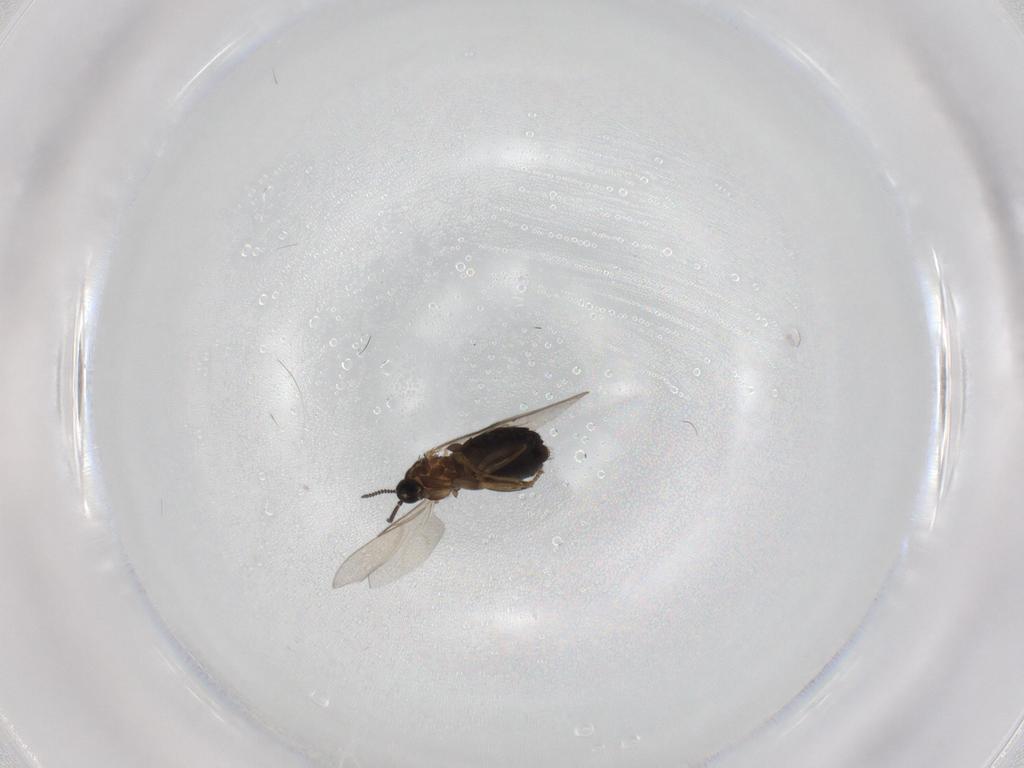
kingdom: Animalia
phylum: Arthropoda
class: Insecta
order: Diptera
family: Scatopsidae
